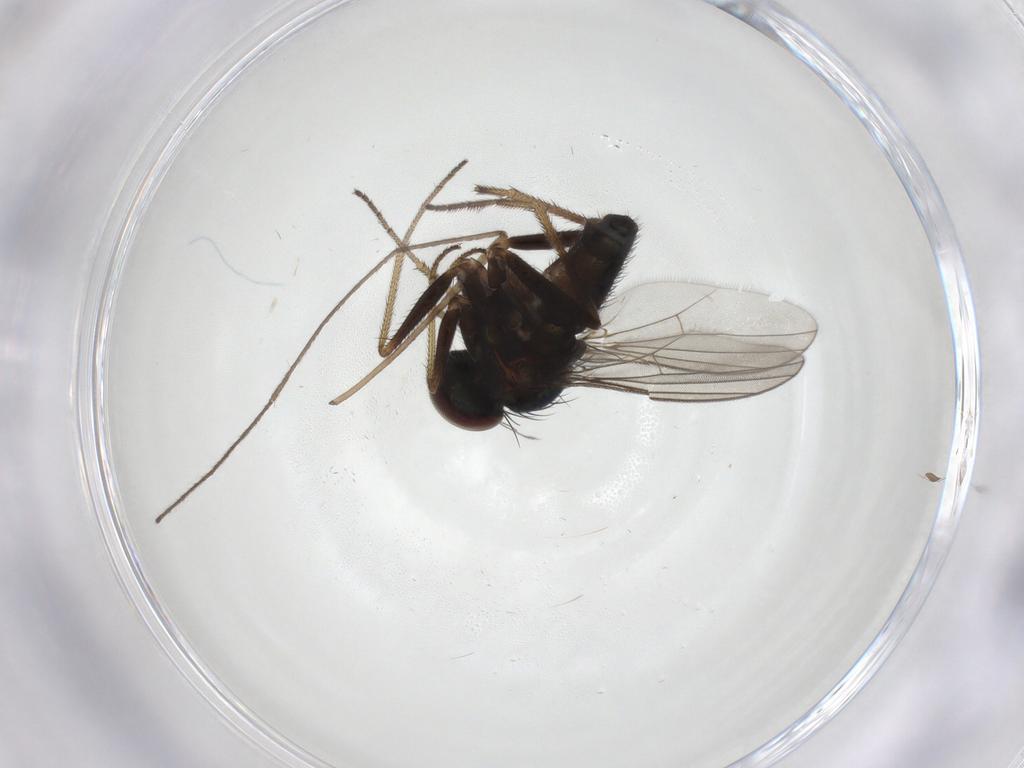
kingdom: Animalia
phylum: Arthropoda
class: Insecta
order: Diptera
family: Limoniidae
